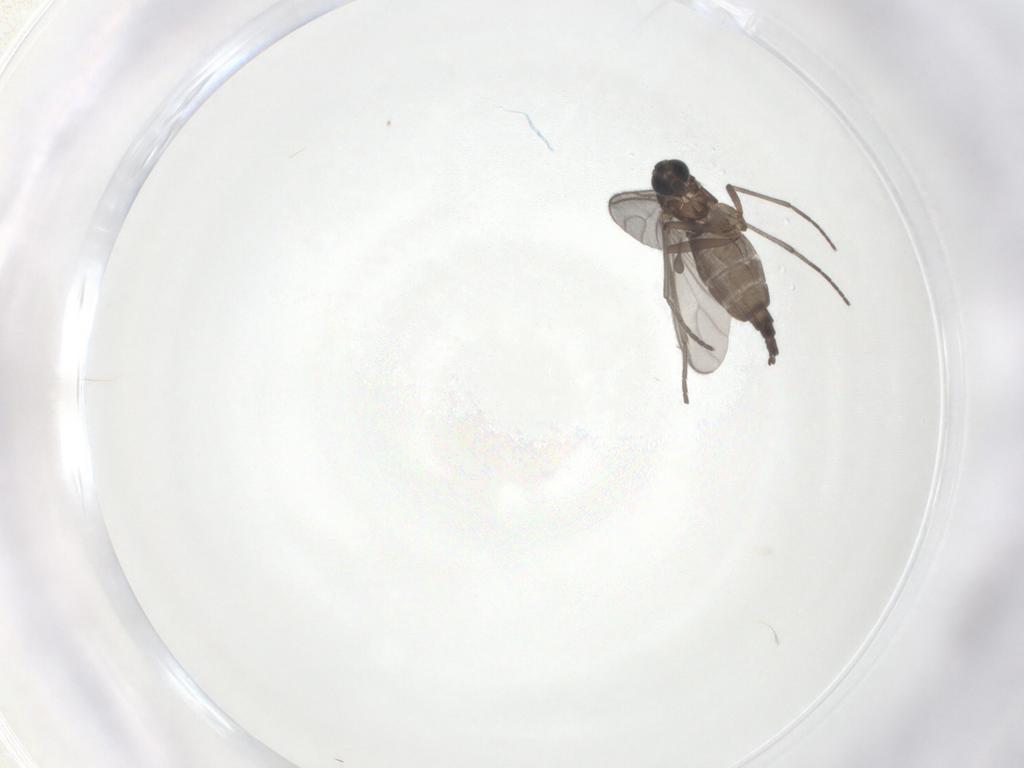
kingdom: Animalia
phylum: Arthropoda
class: Insecta
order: Diptera
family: Sciaridae
